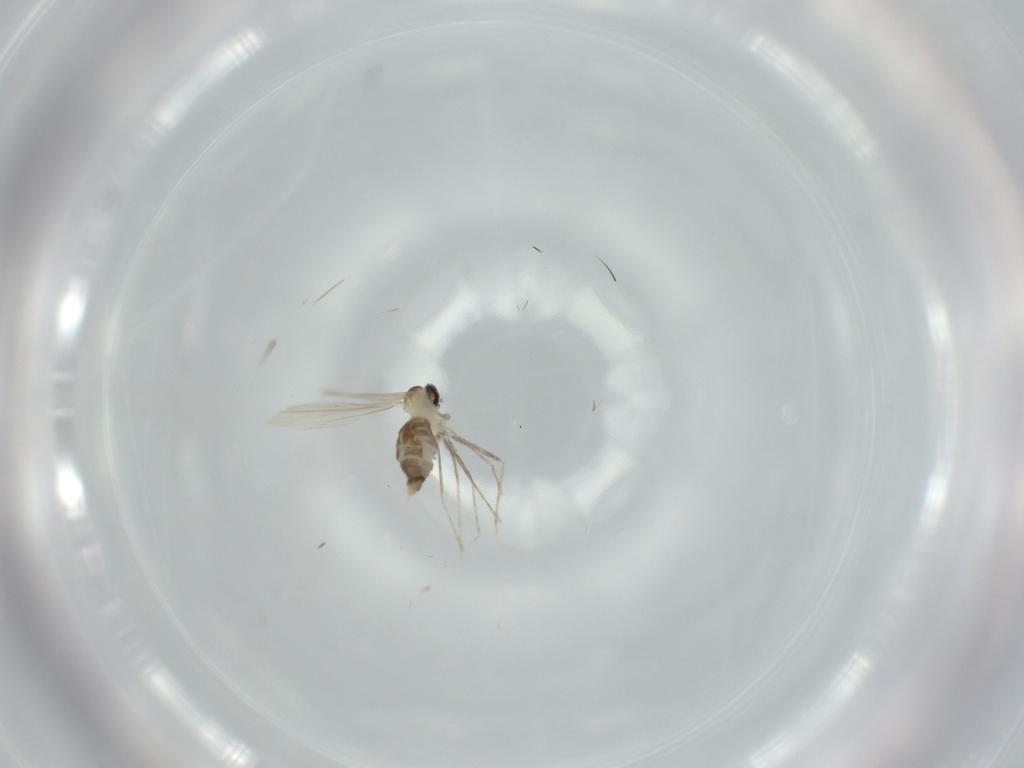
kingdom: Animalia
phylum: Arthropoda
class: Insecta
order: Diptera
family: Cecidomyiidae
